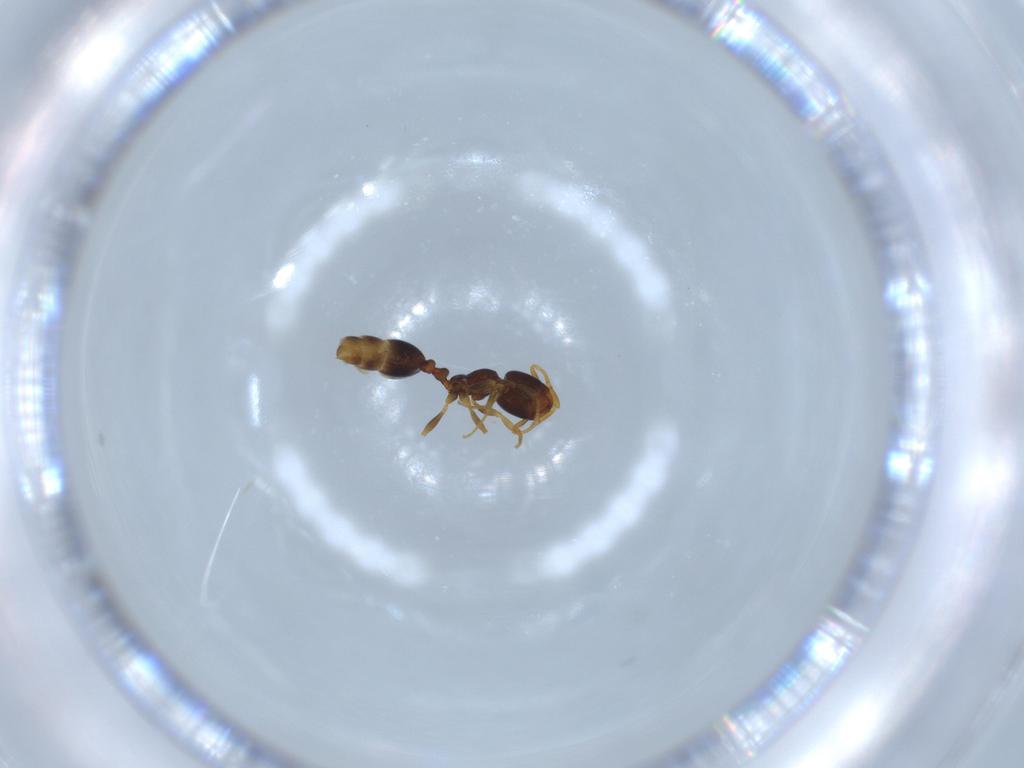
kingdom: Animalia
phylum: Arthropoda
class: Insecta
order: Hymenoptera
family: Formicidae
